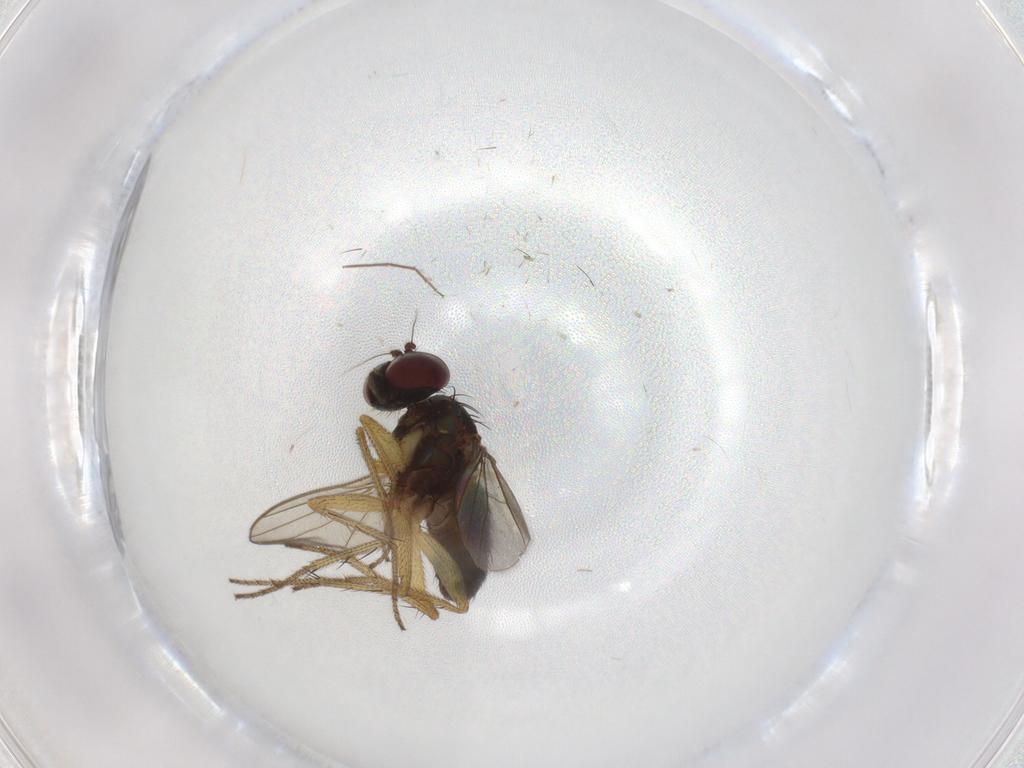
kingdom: Animalia
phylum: Arthropoda
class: Insecta
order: Diptera
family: Dolichopodidae
